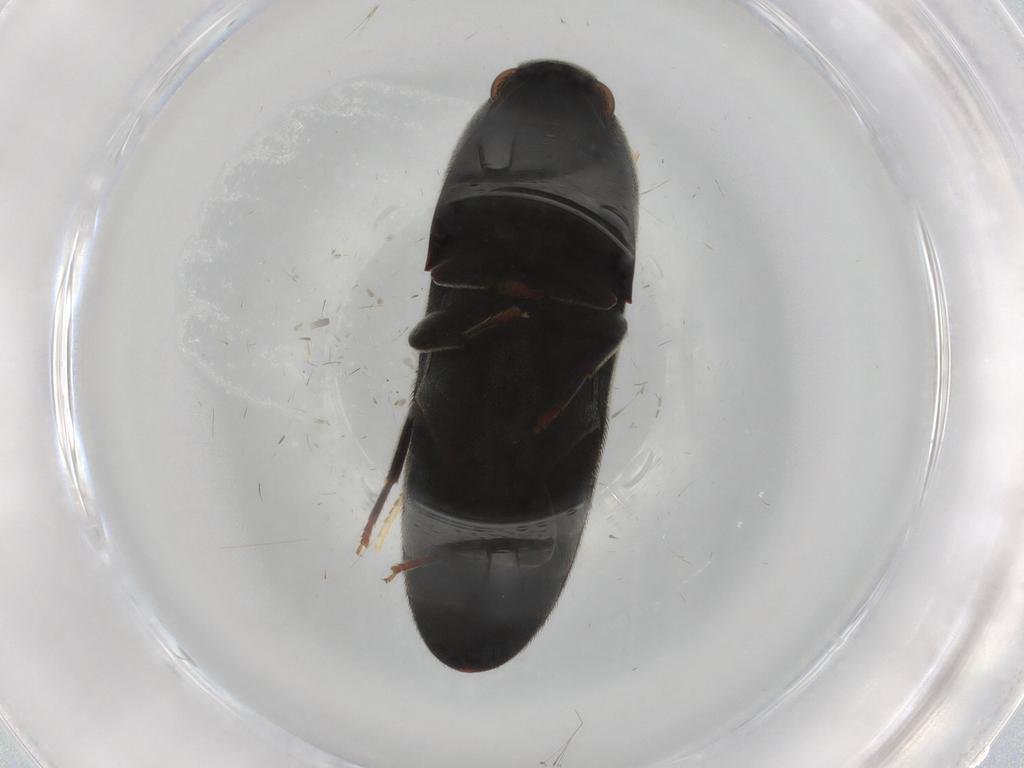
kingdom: Animalia
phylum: Arthropoda
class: Insecta
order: Coleoptera
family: Eucnemidae
